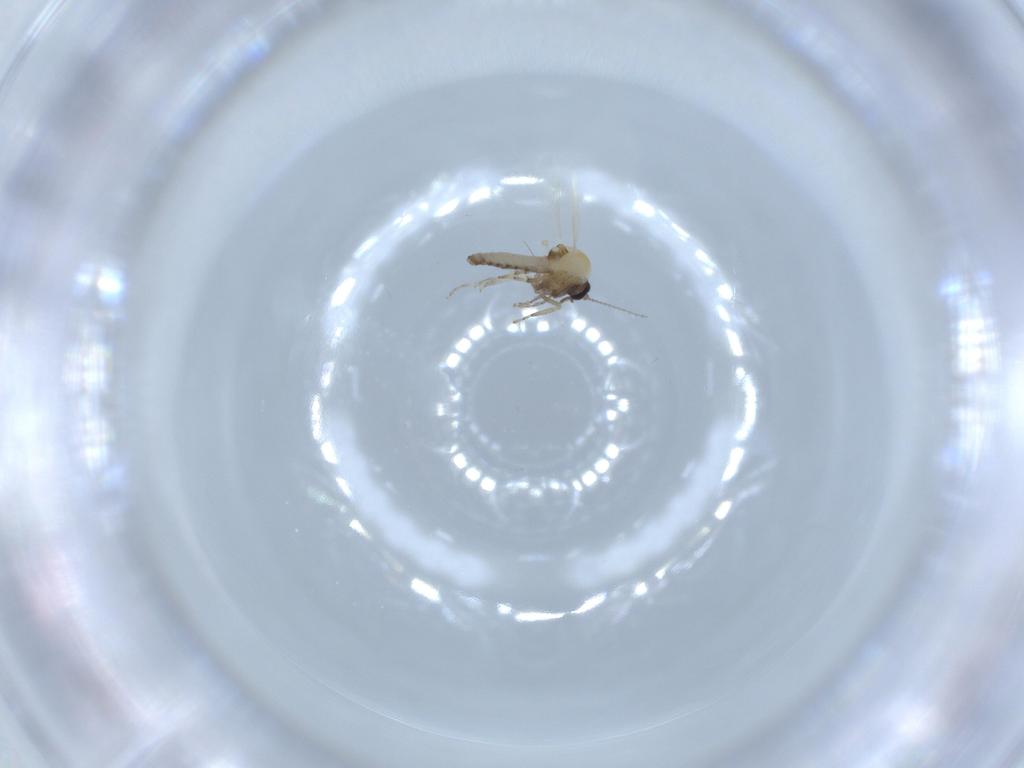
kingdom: Animalia
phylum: Arthropoda
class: Insecta
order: Diptera
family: Ceratopogonidae
